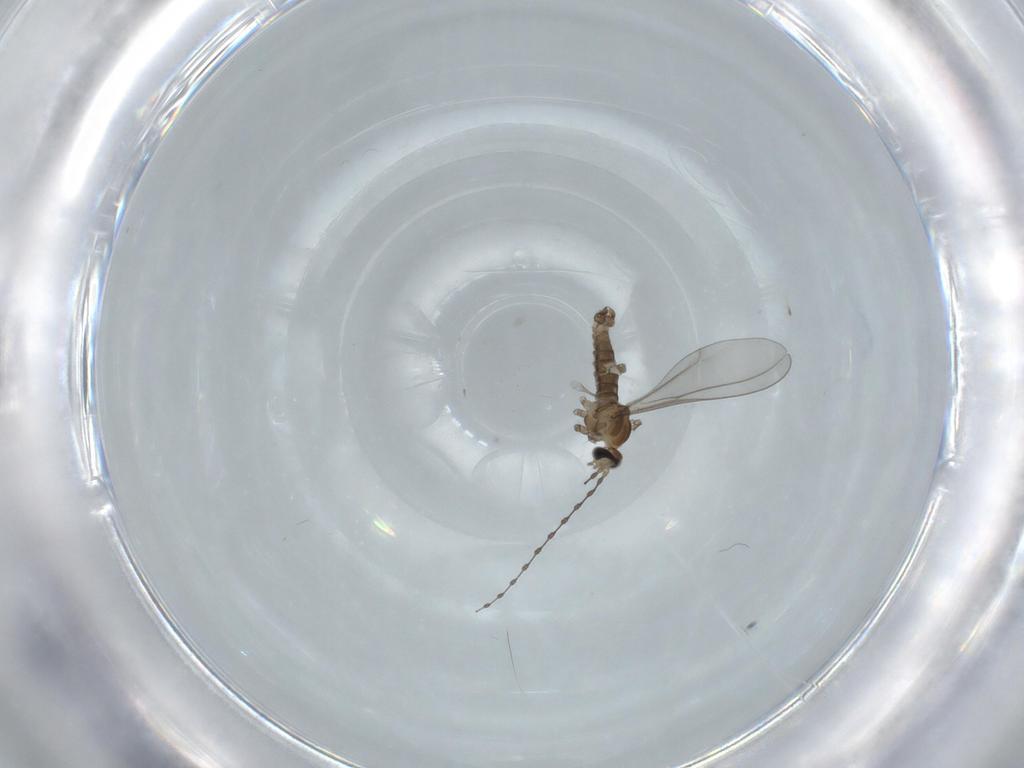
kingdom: Animalia
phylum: Arthropoda
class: Insecta
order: Diptera
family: Cecidomyiidae
